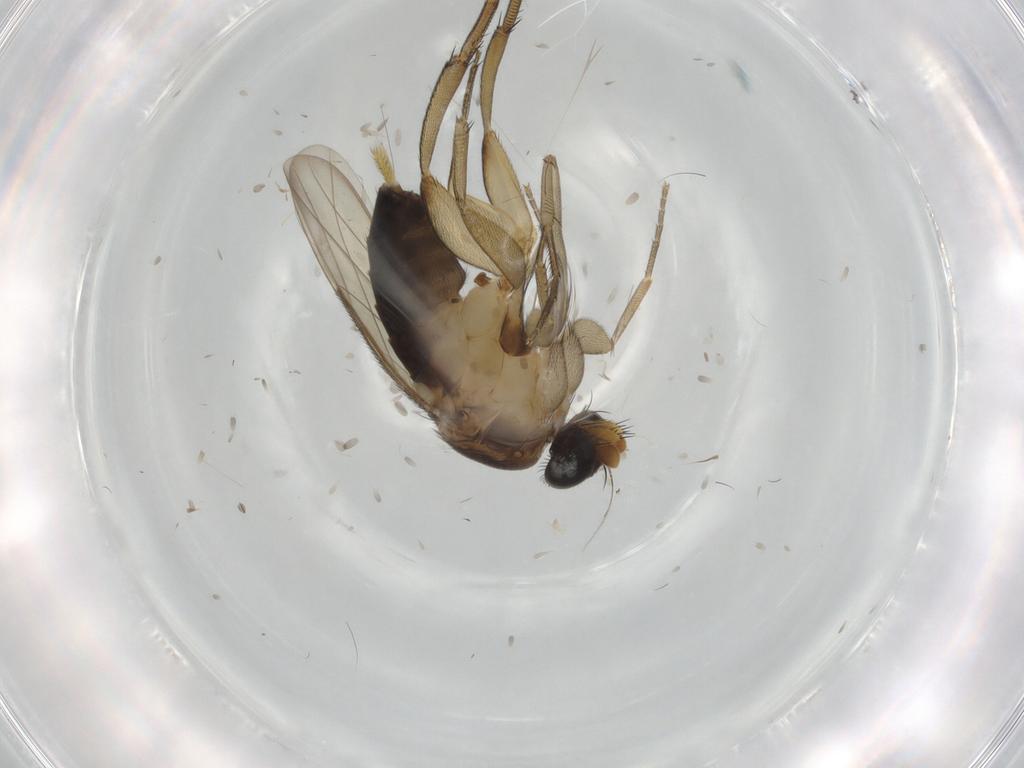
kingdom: Animalia
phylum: Arthropoda
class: Insecta
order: Diptera
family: Phoridae
